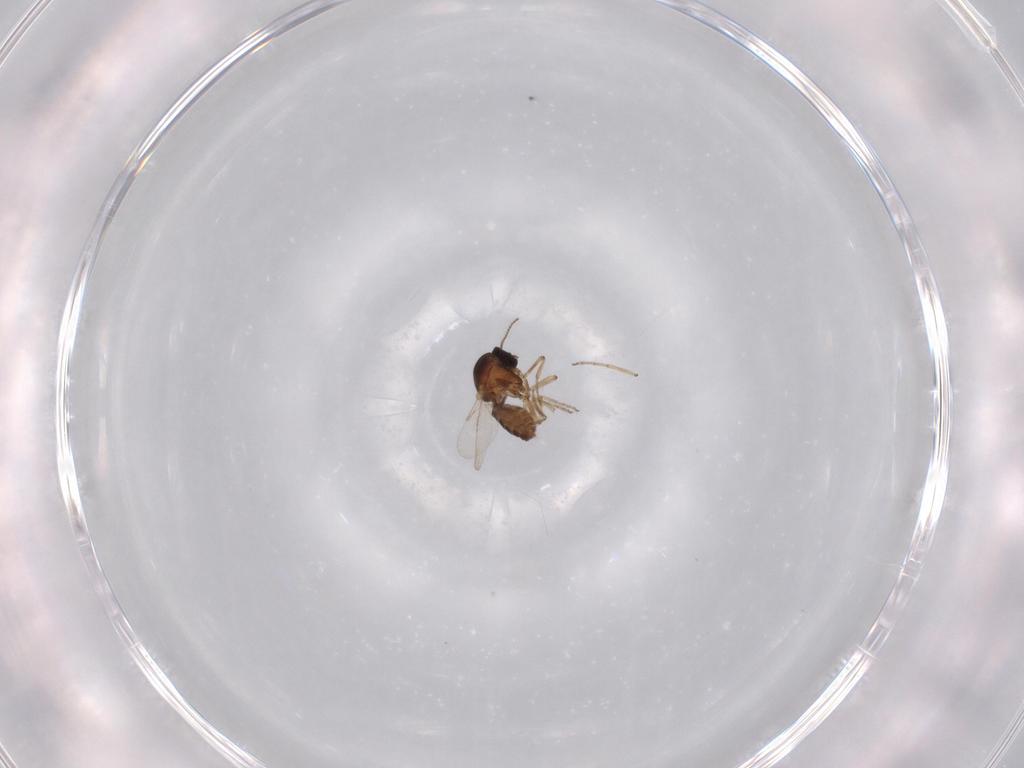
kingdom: Animalia
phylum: Arthropoda
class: Insecta
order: Diptera
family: Ceratopogonidae
